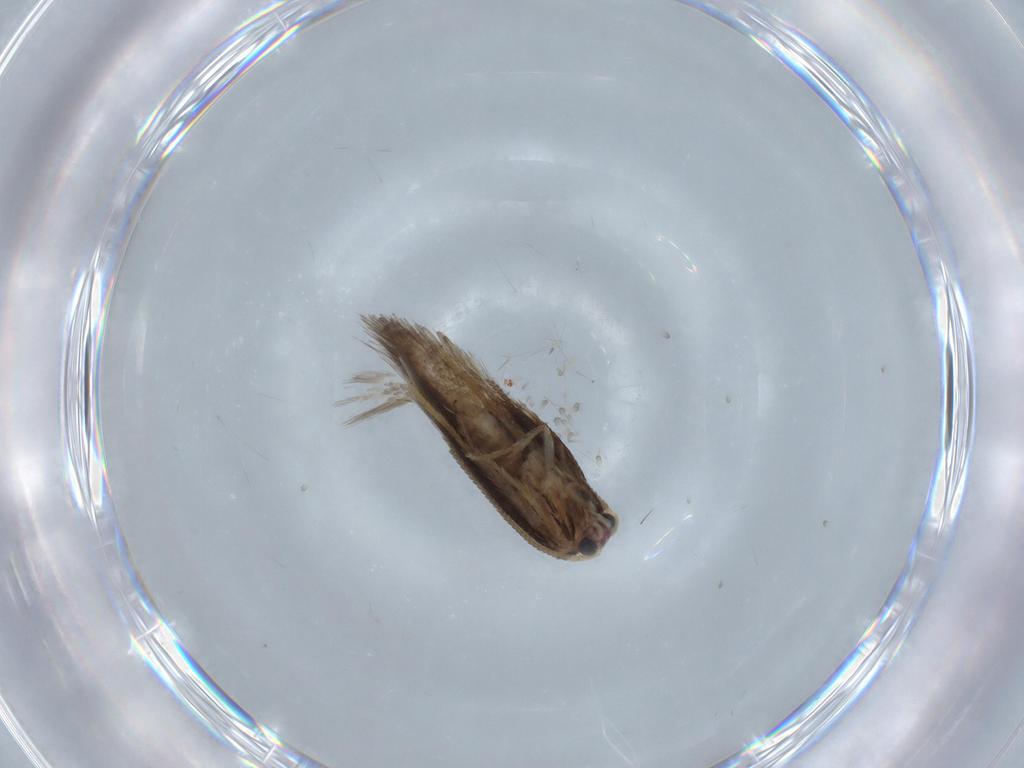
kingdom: Animalia
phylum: Arthropoda
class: Insecta
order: Lepidoptera
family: Nepticulidae
